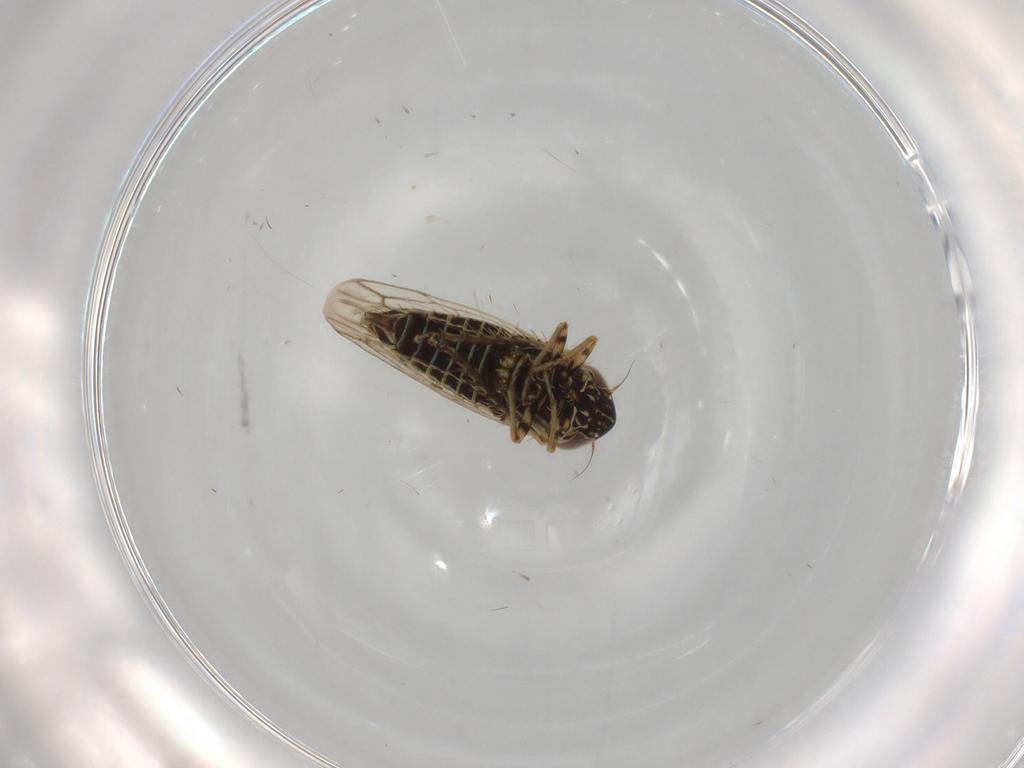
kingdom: Animalia
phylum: Arthropoda
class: Insecta
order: Hemiptera
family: Cicadellidae
